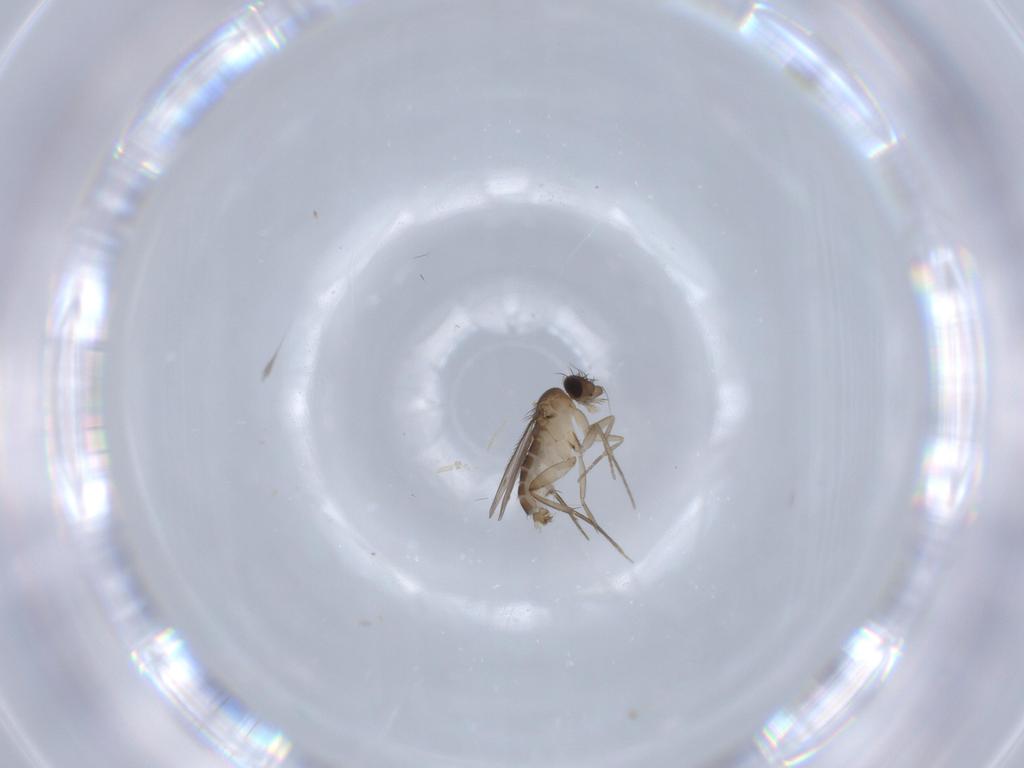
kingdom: Animalia
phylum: Arthropoda
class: Insecta
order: Diptera
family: Phoridae
